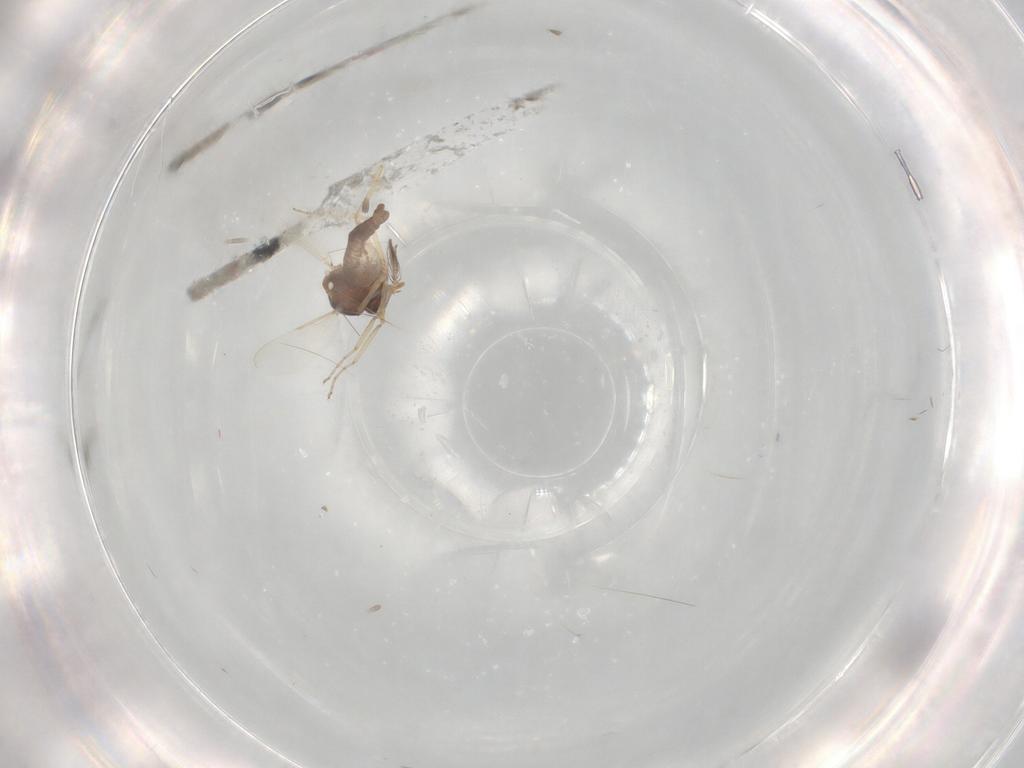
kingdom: Animalia
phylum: Arthropoda
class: Insecta
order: Diptera
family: Ceratopogonidae
